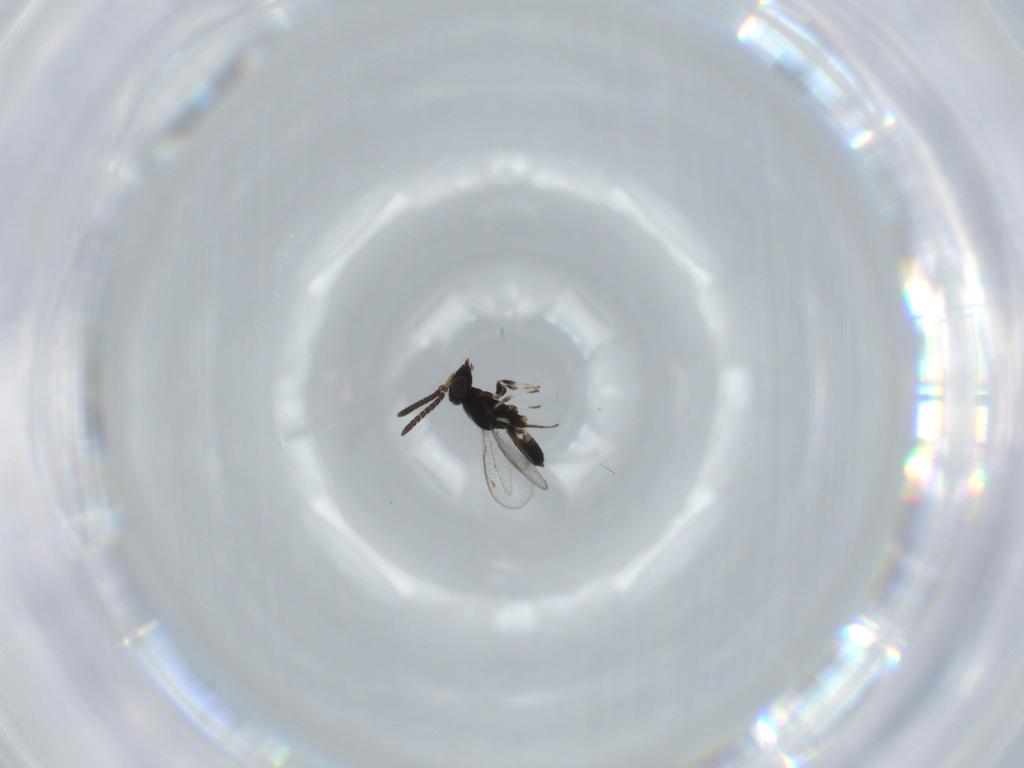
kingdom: Animalia
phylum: Arthropoda
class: Insecta
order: Hymenoptera
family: Eupelmidae
